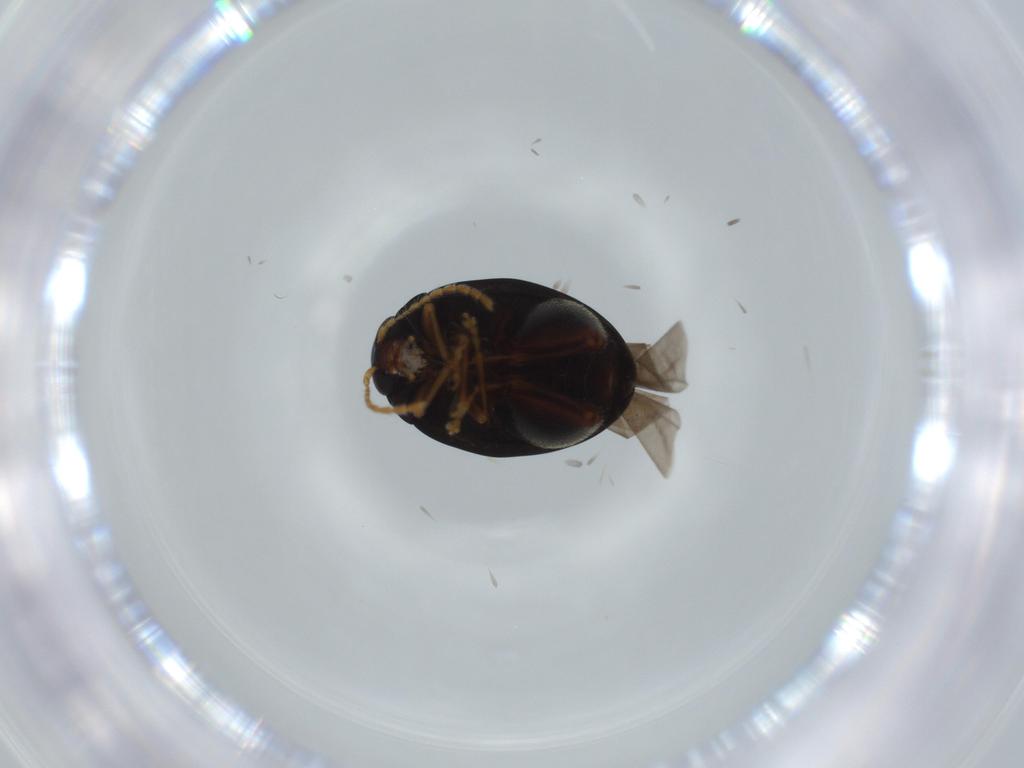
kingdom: Animalia
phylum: Arthropoda
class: Insecta
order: Coleoptera
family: Chrysomelidae
